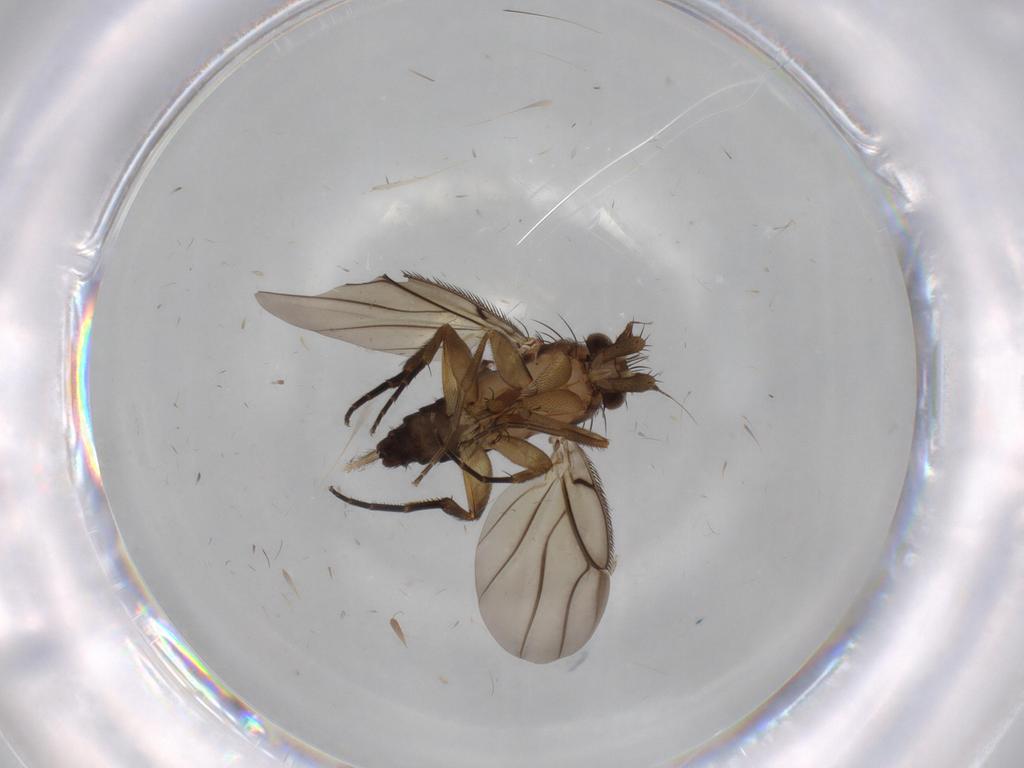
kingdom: Animalia
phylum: Arthropoda
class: Insecta
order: Diptera
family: Phoridae
